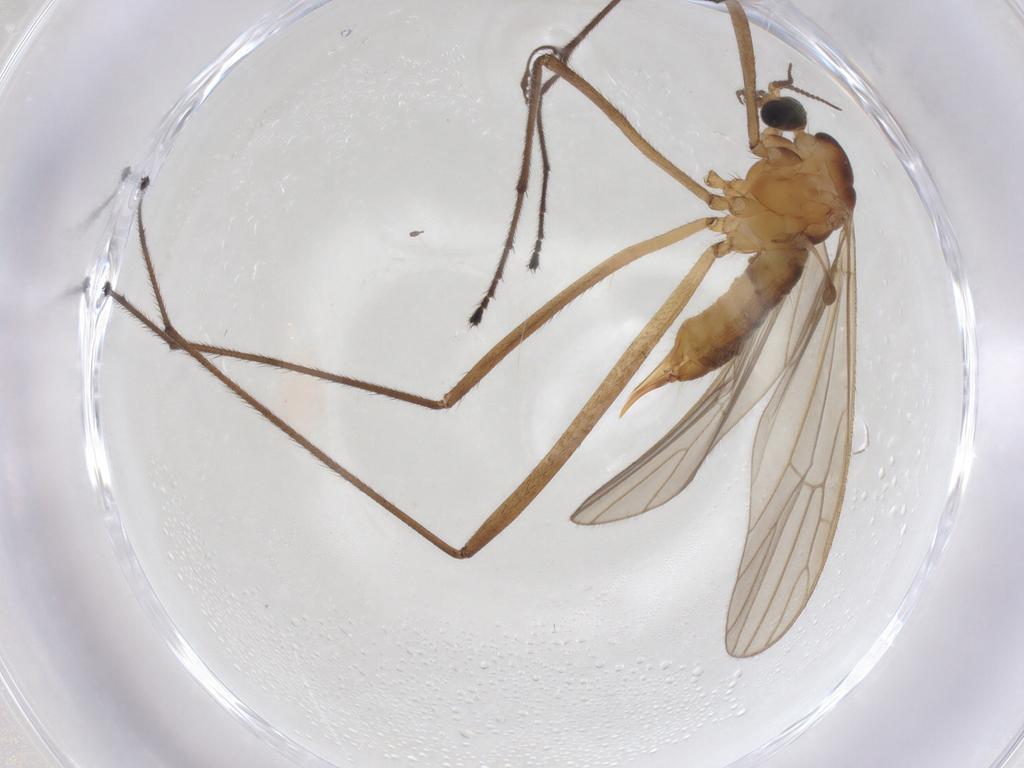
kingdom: Animalia
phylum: Arthropoda
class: Insecta
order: Diptera
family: Limoniidae
